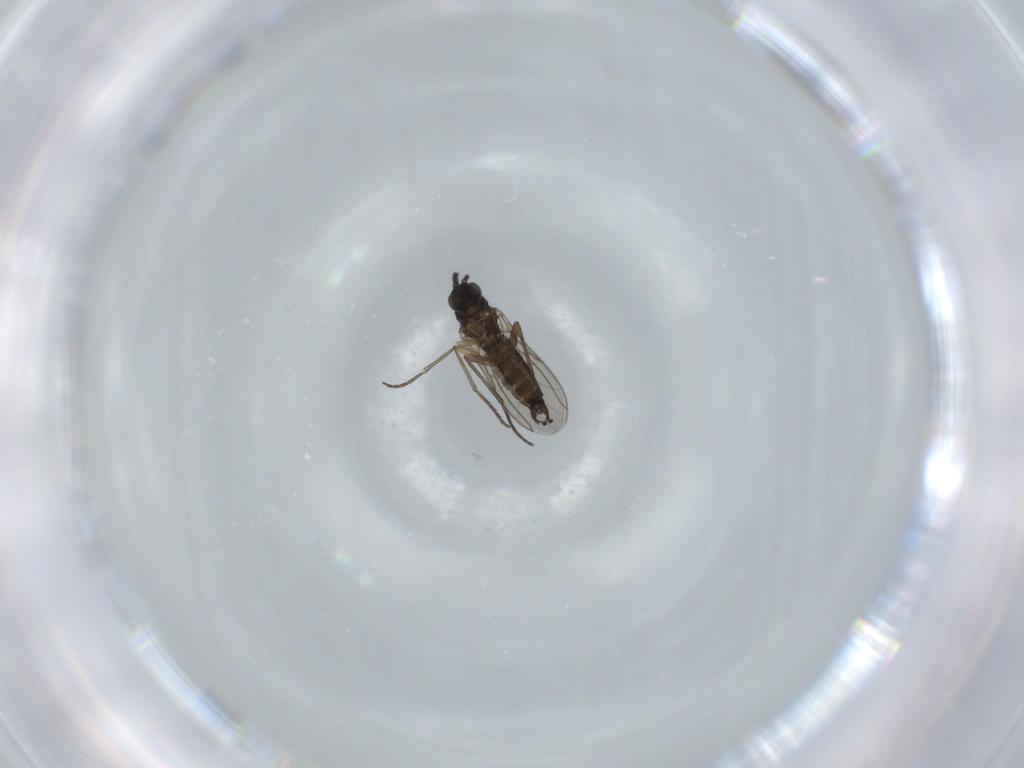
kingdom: Animalia
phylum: Arthropoda
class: Insecta
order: Diptera
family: Sciaridae
